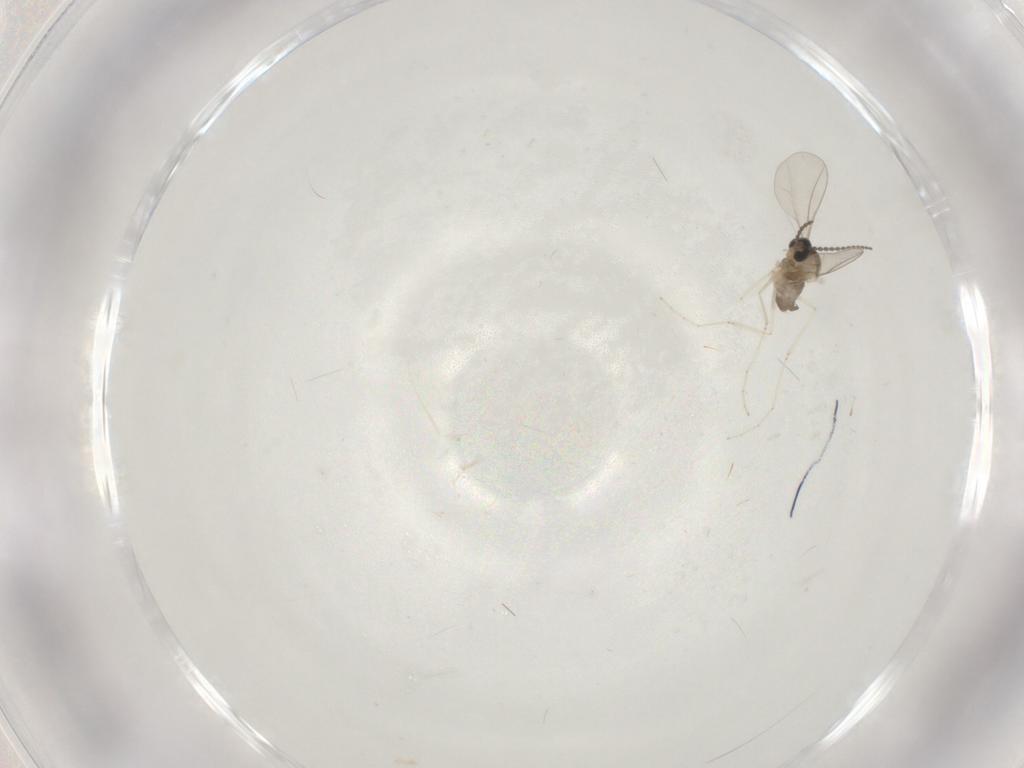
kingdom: Animalia
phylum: Arthropoda
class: Insecta
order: Diptera
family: Cecidomyiidae
